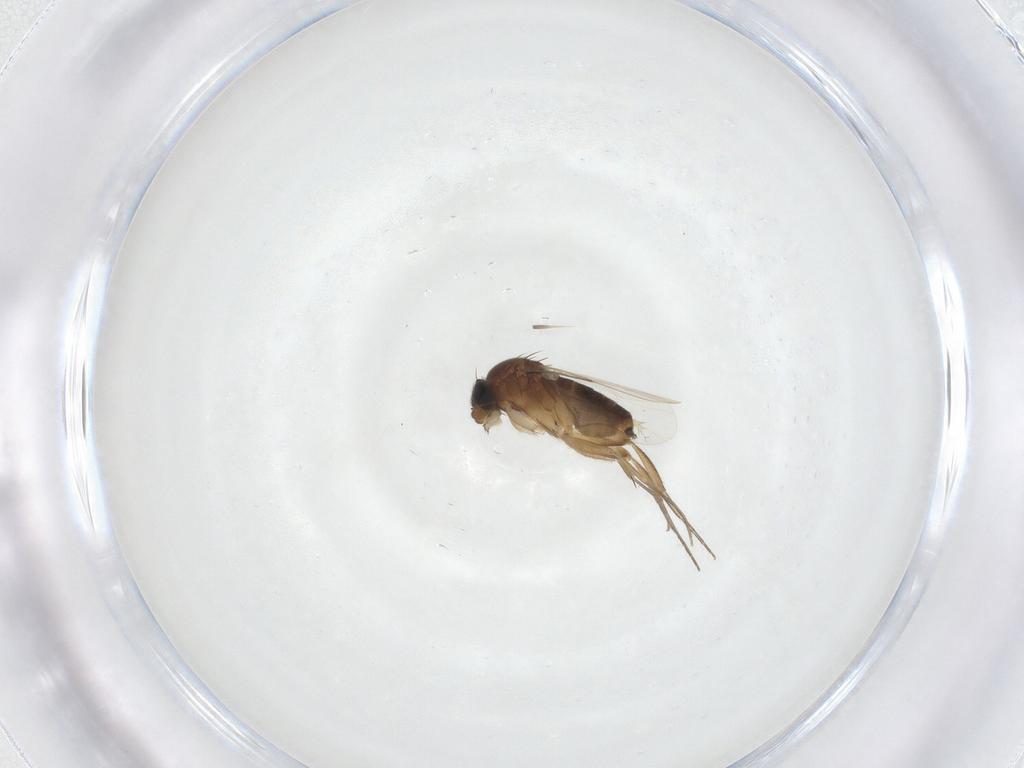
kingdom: Animalia
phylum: Arthropoda
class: Insecta
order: Diptera
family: Phoridae
